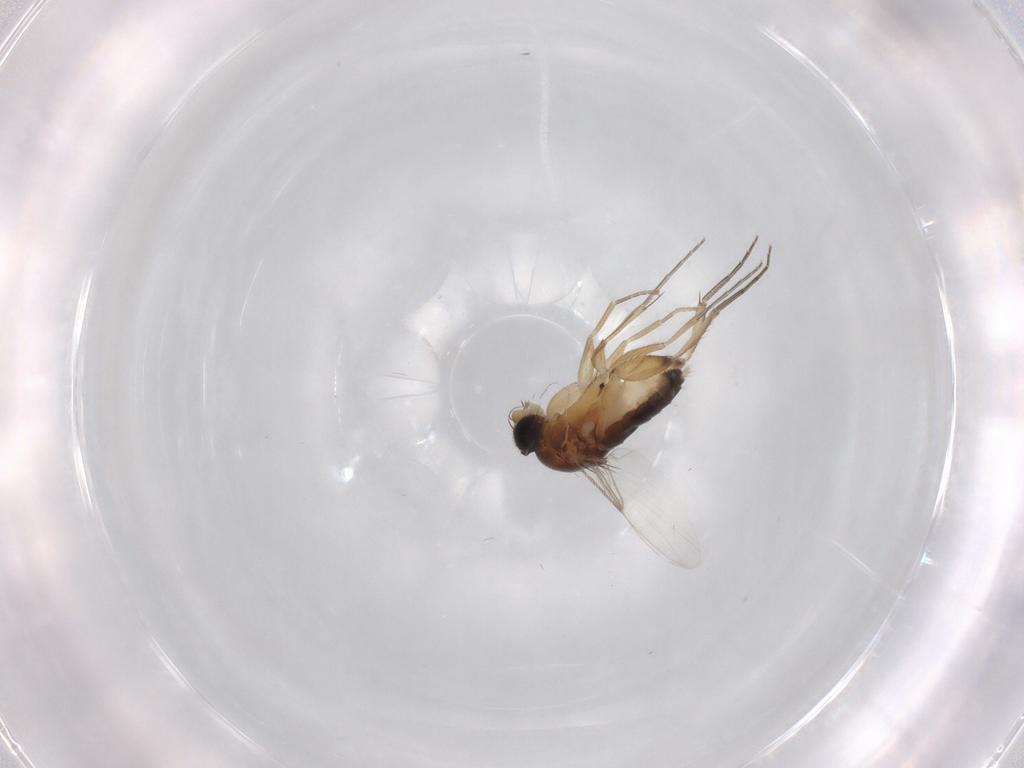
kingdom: Animalia
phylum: Arthropoda
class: Insecta
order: Diptera
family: Phoridae
